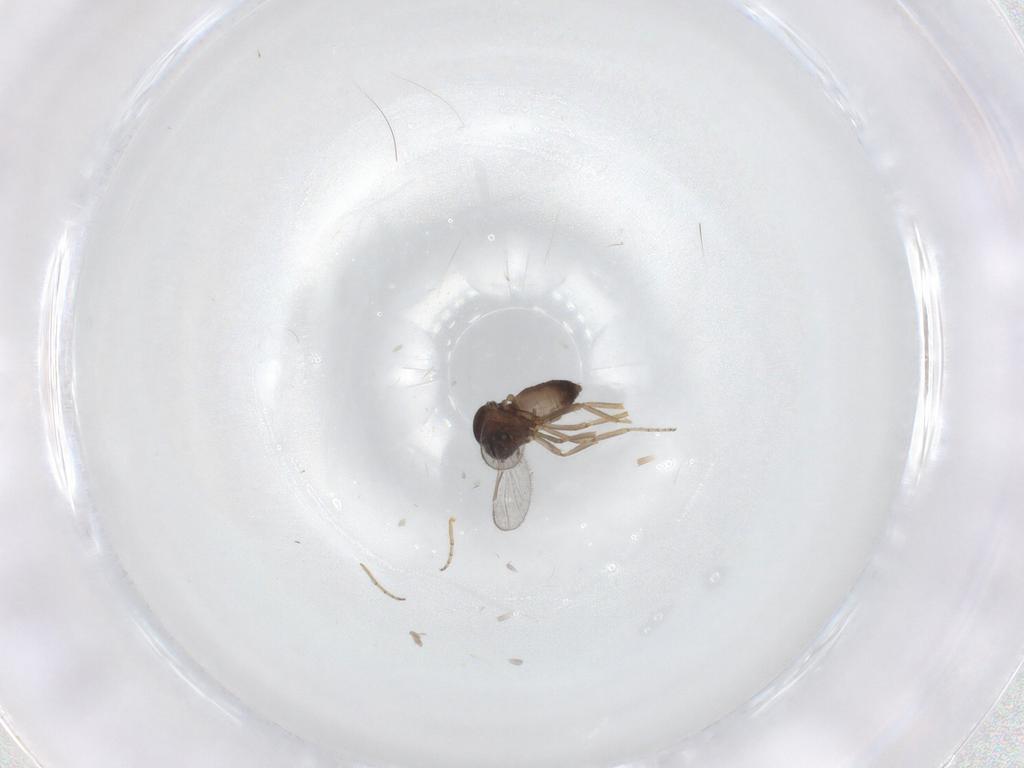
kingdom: Animalia
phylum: Arthropoda
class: Insecta
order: Diptera
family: Ceratopogonidae
